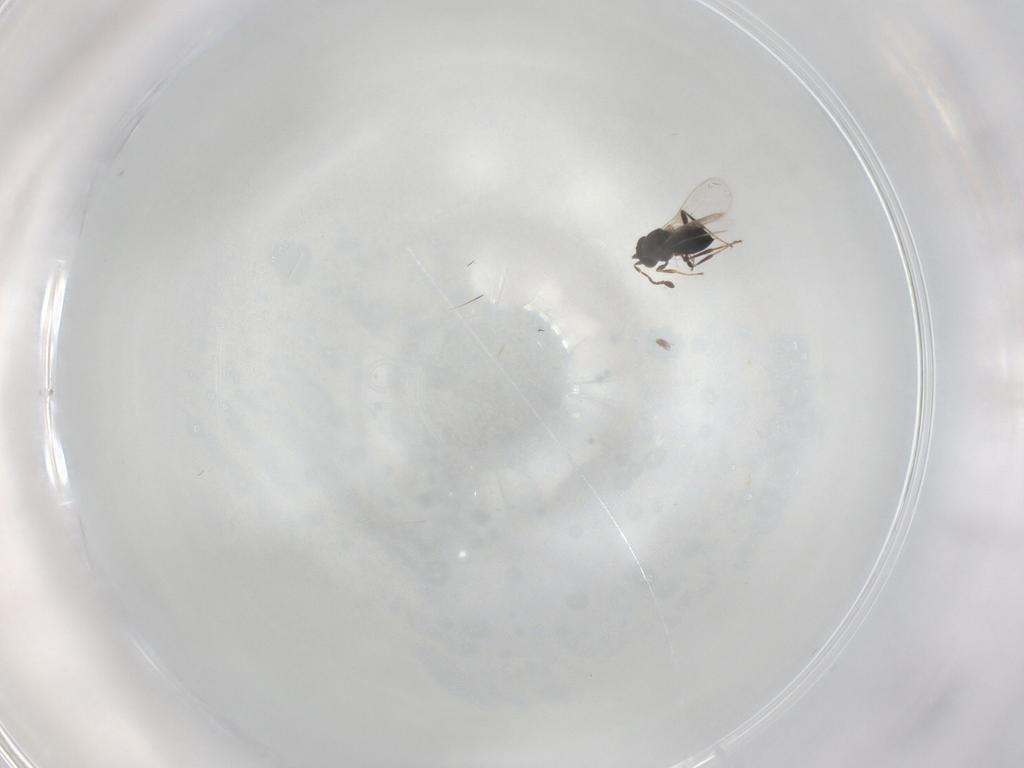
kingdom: Animalia
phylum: Arthropoda
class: Insecta
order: Hymenoptera
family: Platygastridae
